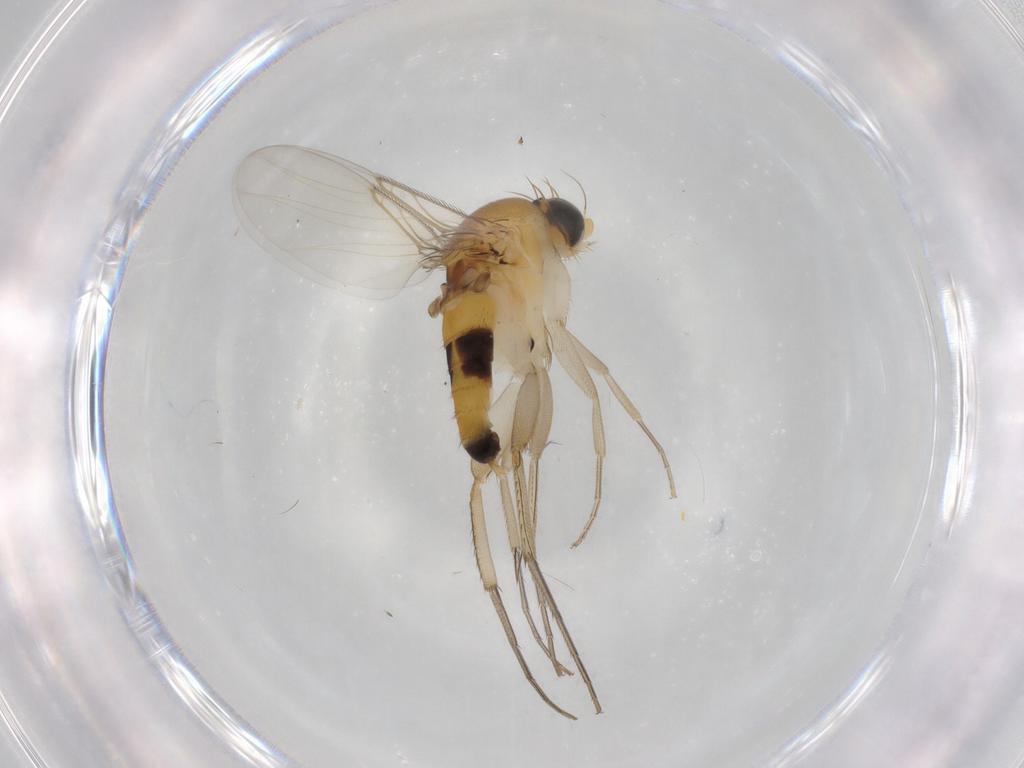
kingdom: Animalia
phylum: Arthropoda
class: Insecta
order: Diptera
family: Phoridae
